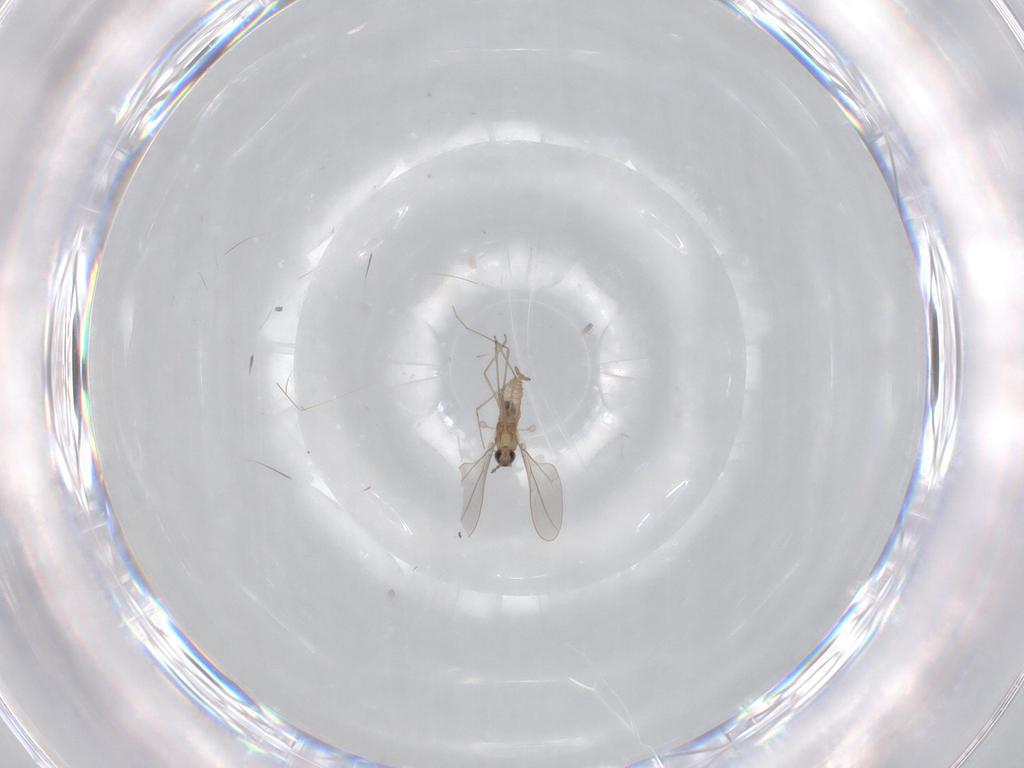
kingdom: Animalia
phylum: Arthropoda
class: Insecta
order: Diptera
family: Cecidomyiidae
